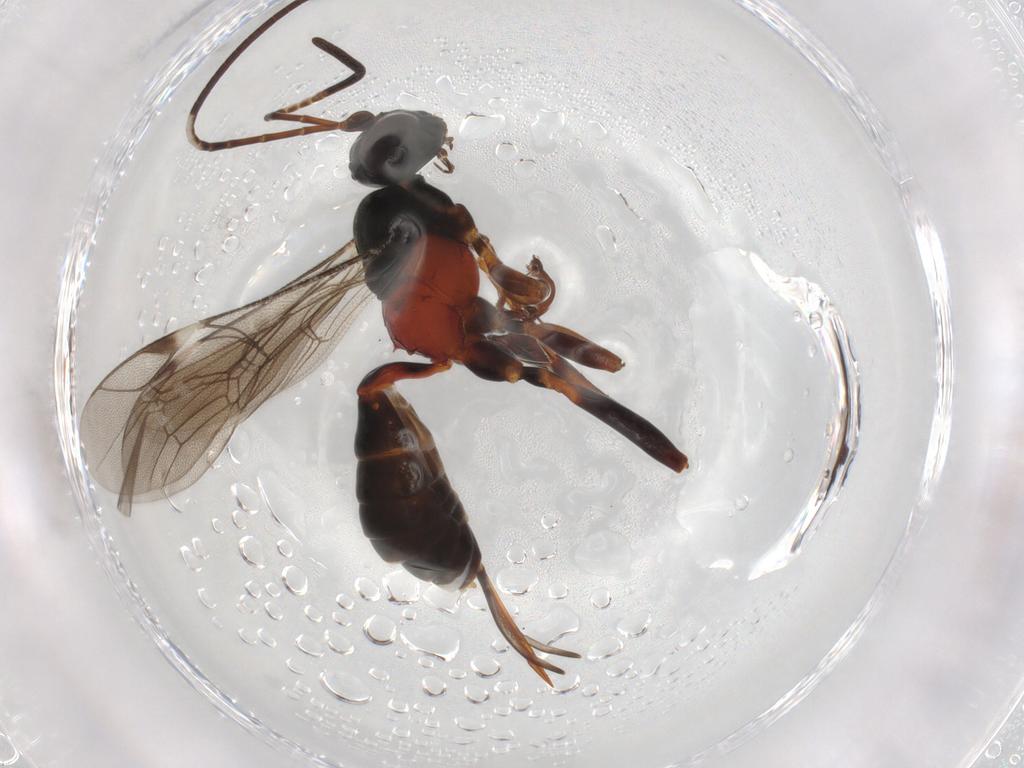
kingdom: Animalia
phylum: Arthropoda
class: Insecta
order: Hymenoptera
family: Ichneumonidae
